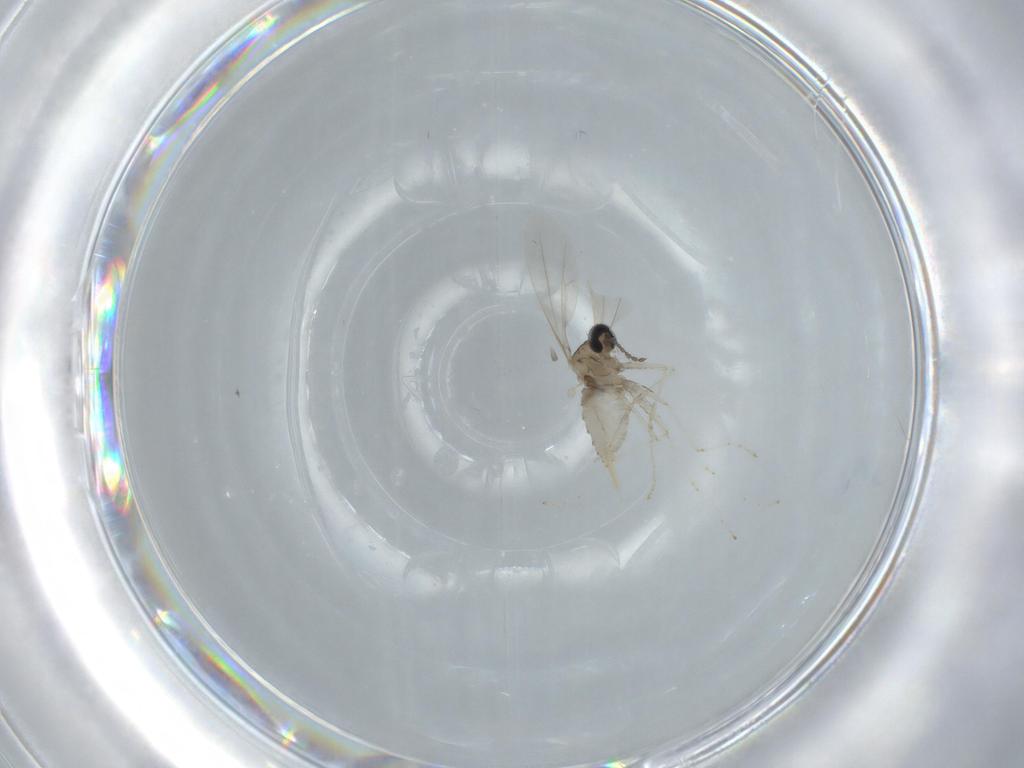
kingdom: Animalia
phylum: Arthropoda
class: Insecta
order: Diptera
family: Cecidomyiidae
